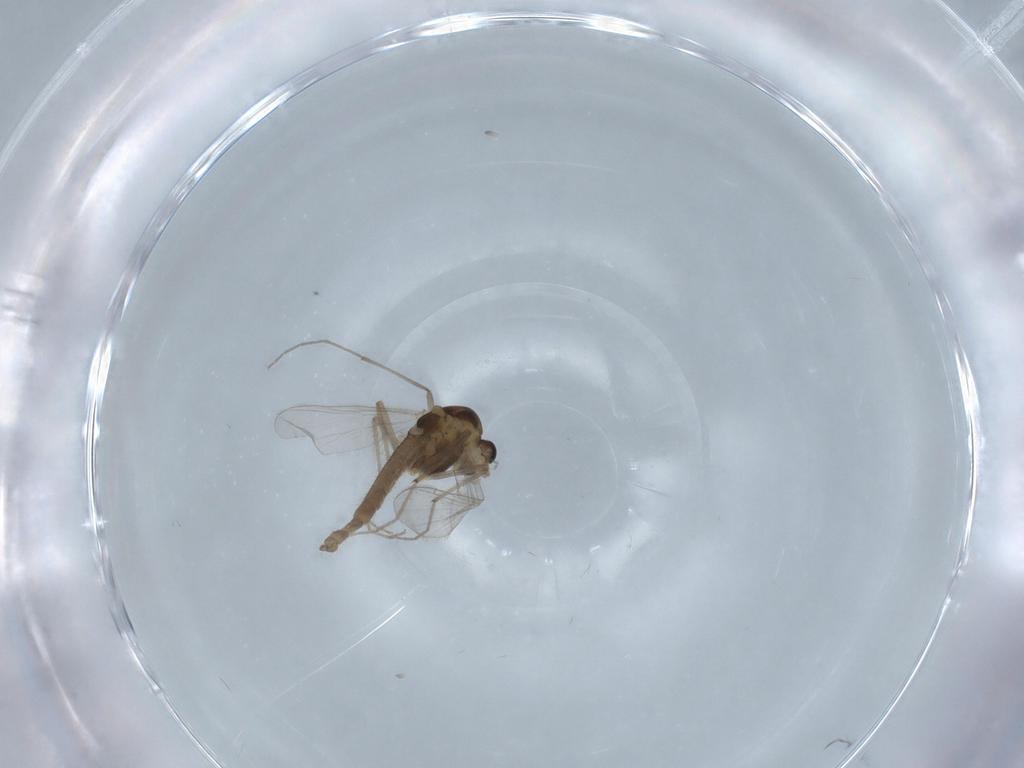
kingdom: Animalia
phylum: Arthropoda
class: Insecta
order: Diptera
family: Chironomidae
